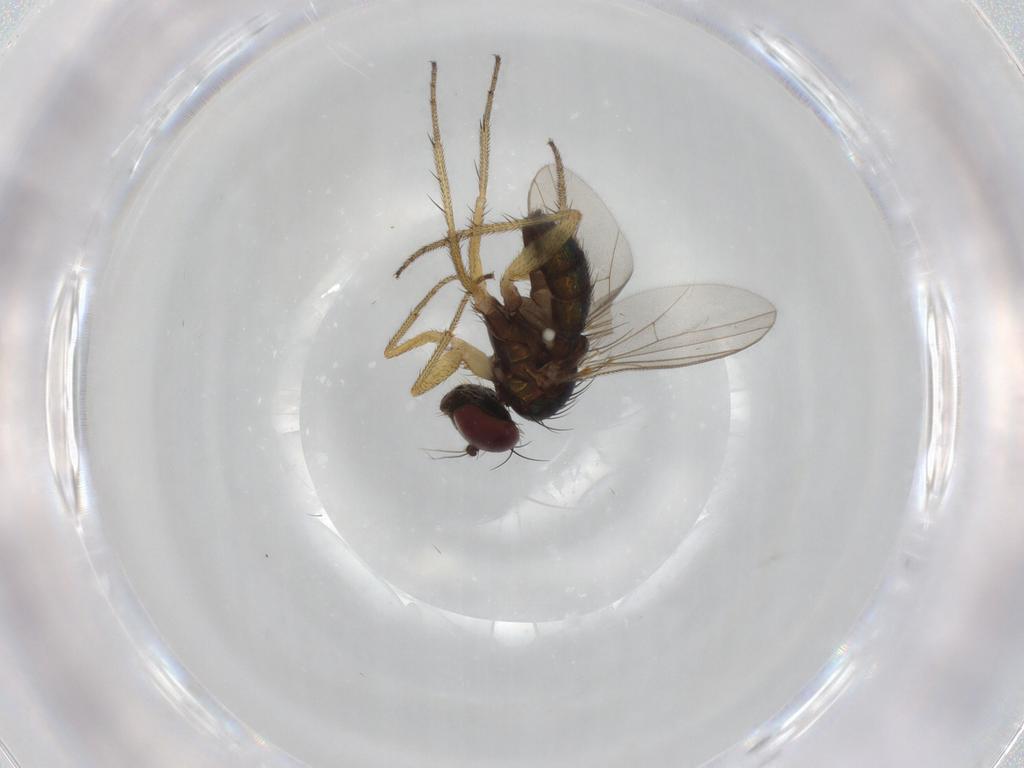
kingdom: Animalia
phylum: Arthropoda
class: Insecta
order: Diptera
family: Dolichopodidae
